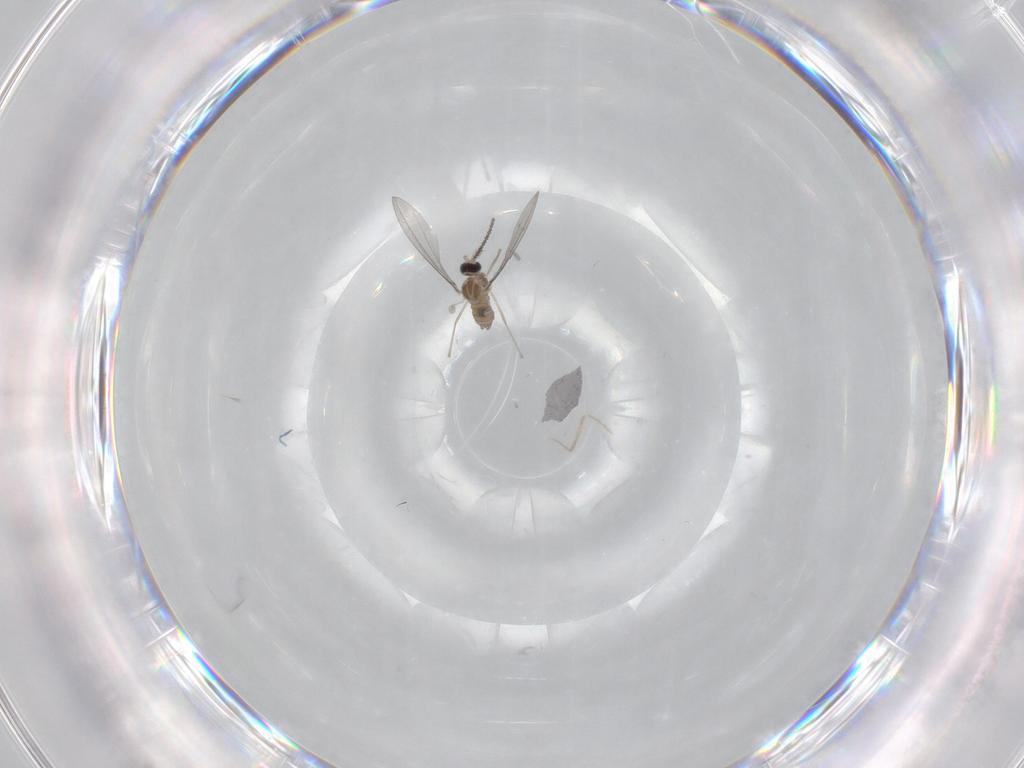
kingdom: Animalia
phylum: Arthropoda
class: Insecta
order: Diptera
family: Cecidomyiidae
